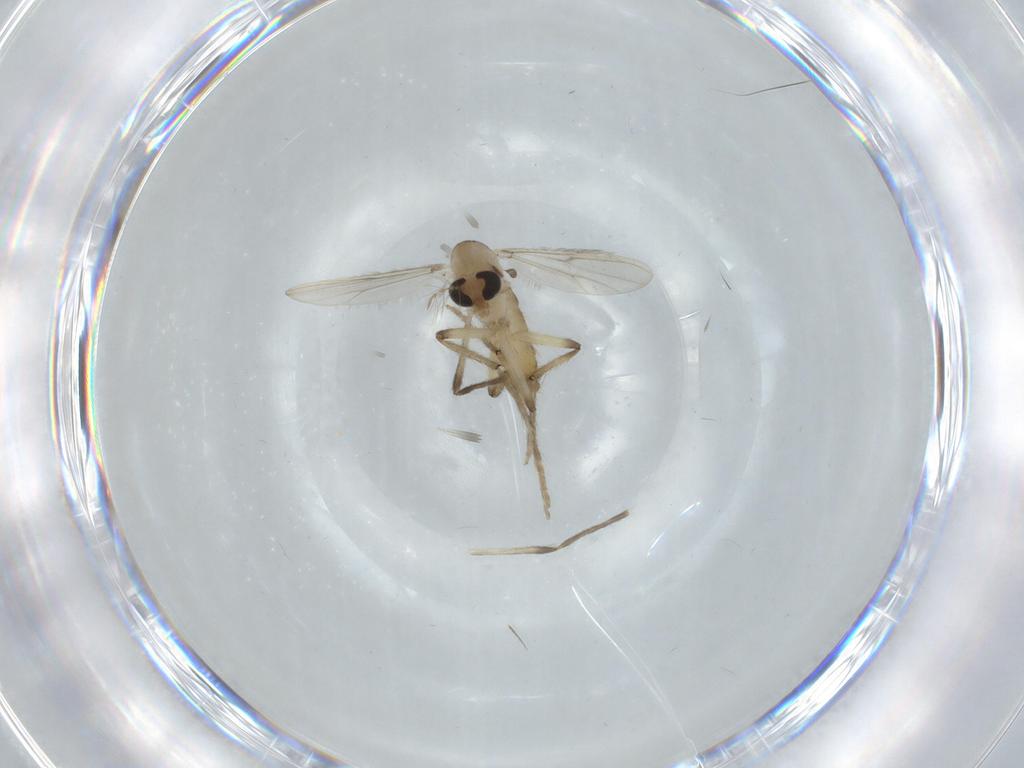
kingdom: Animalia
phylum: Arthropoda
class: Insecta
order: Diptera
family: Chironomidae
